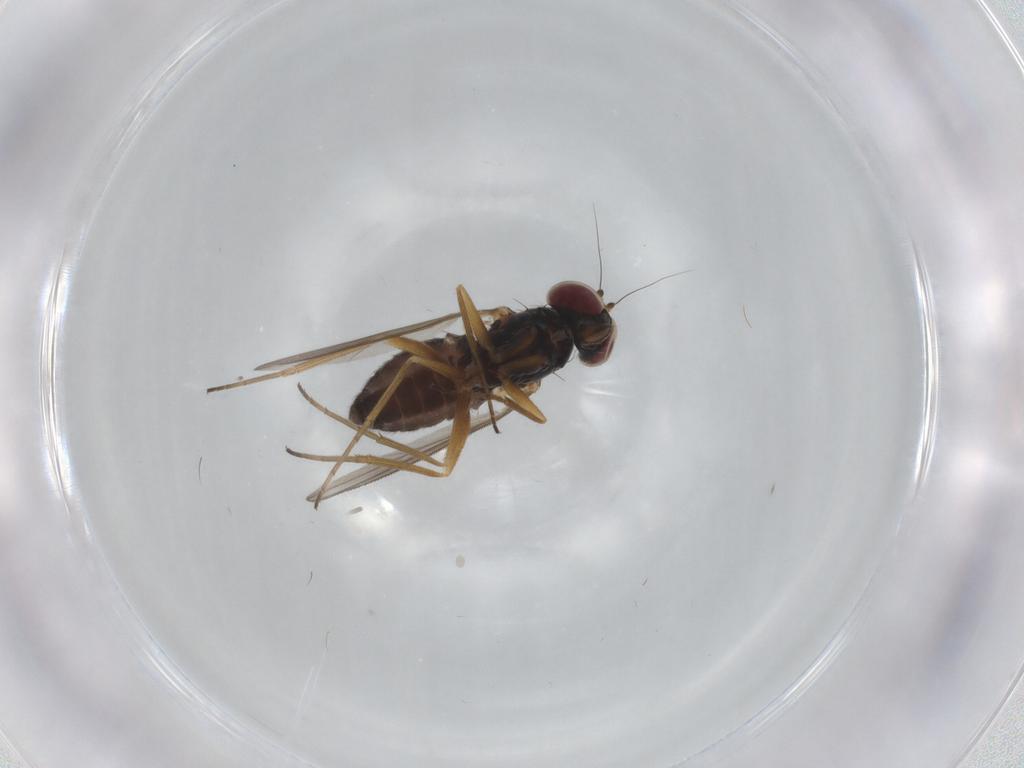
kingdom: Animalia
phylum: Arthropoda
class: Insecta
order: Diptera
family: Dolichopodidae
